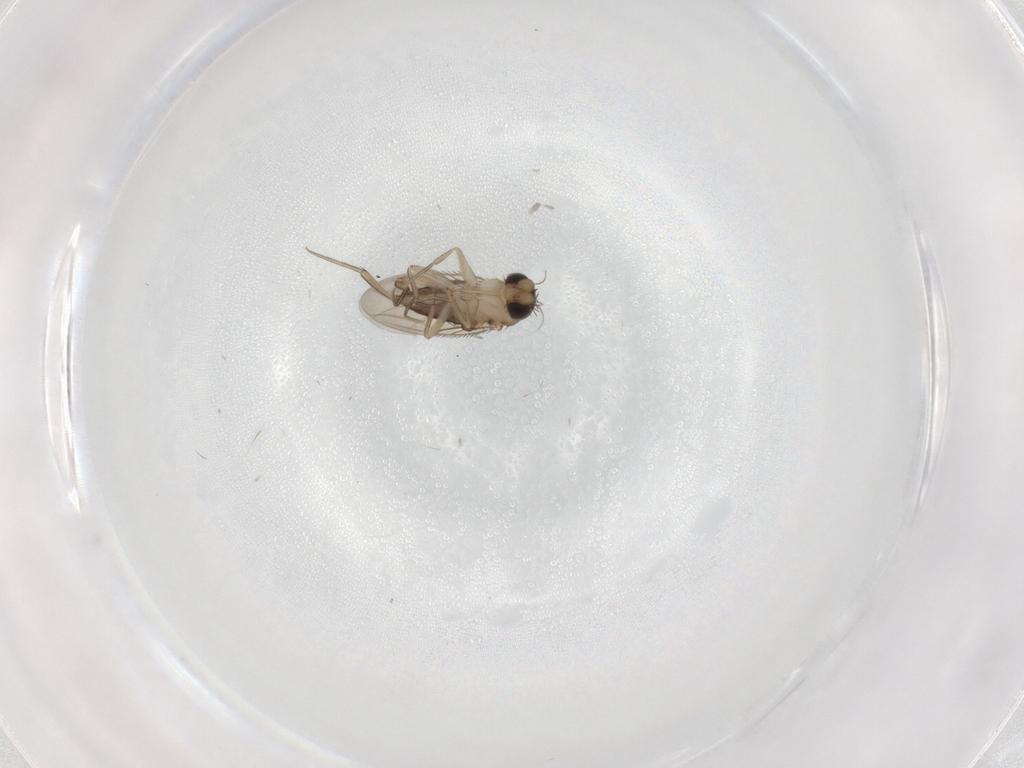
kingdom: Animalia
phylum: Arthropoda
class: Insecta
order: Diptera
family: Phoridae
